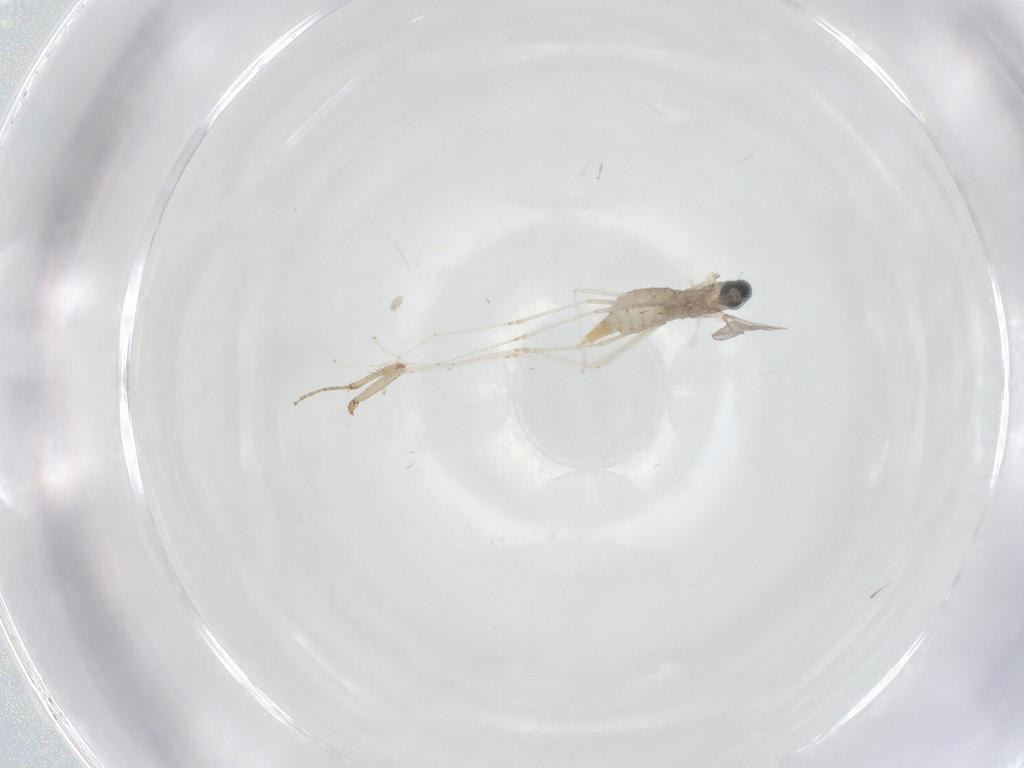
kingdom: Animalia
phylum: Arthropoda
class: Insecta
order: Diptera
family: Cecidomyiidae
